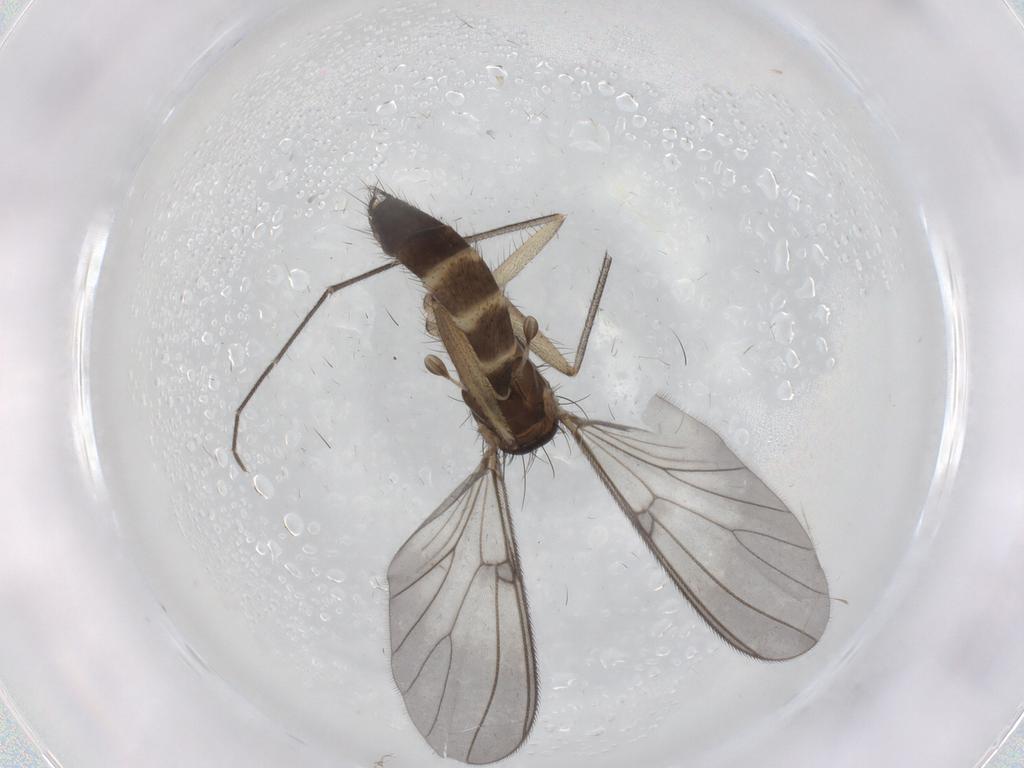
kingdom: Animalia
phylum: Arthropoda
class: Insecta
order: Diptera
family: Mycetophilidae
